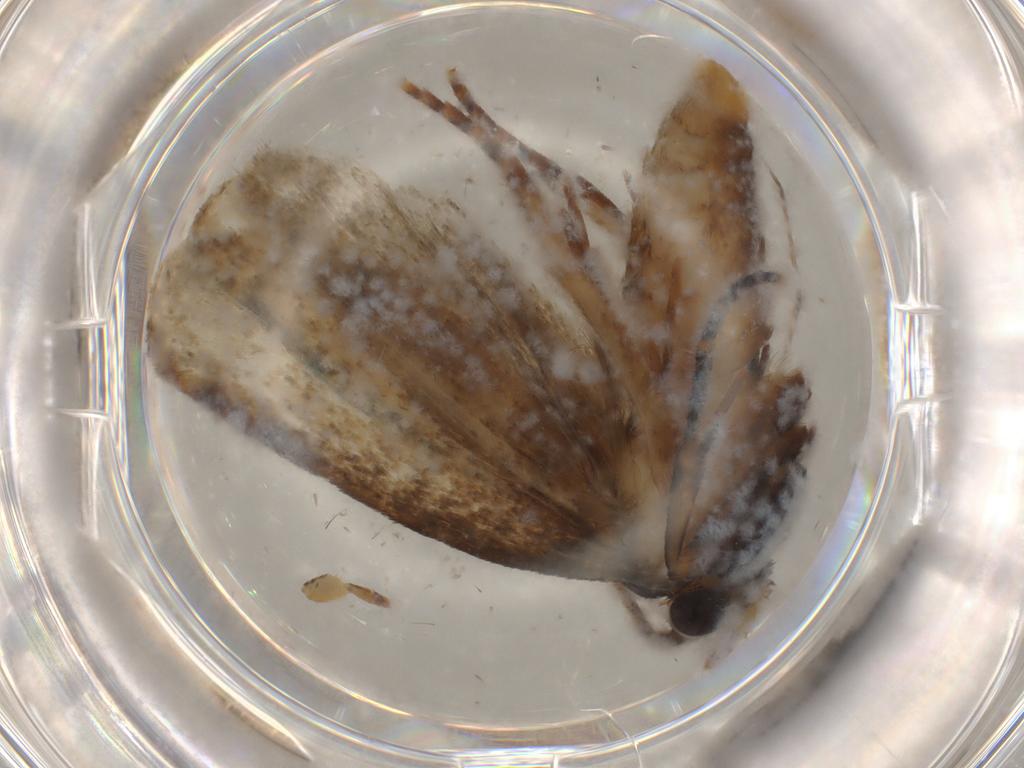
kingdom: Animalia
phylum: Arthropoda
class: Insecta
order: Lepidoptera
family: Tineidae
